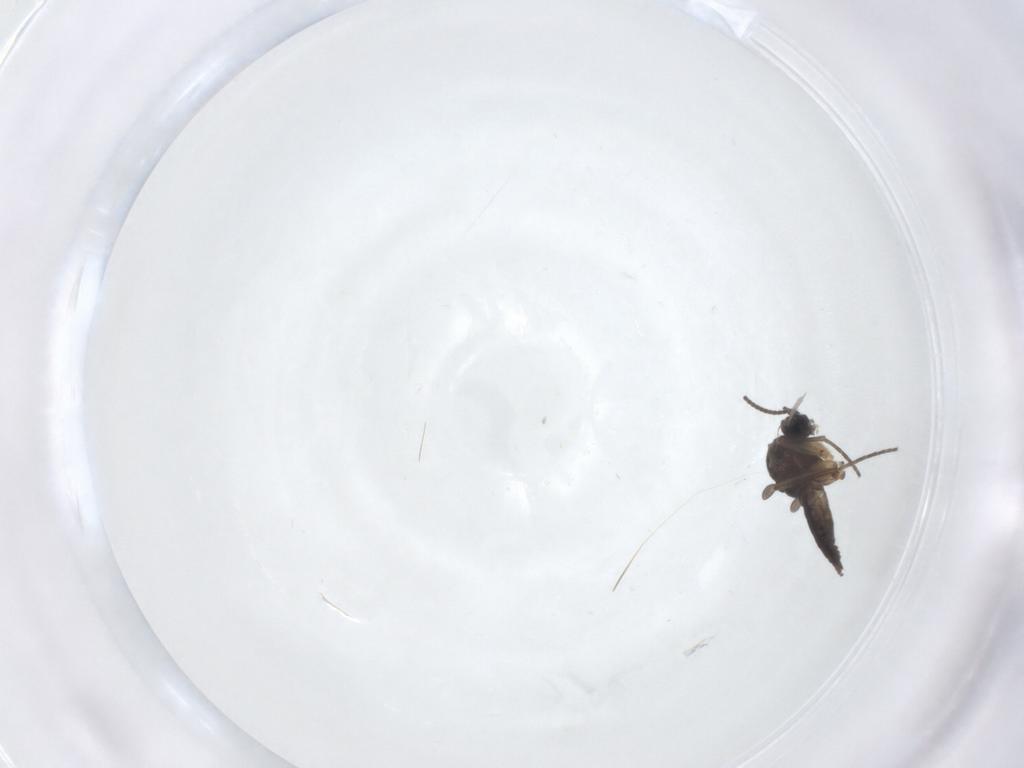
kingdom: Animalia
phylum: Arthropoda
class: Insecta
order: Diptera
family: Sciaridae
